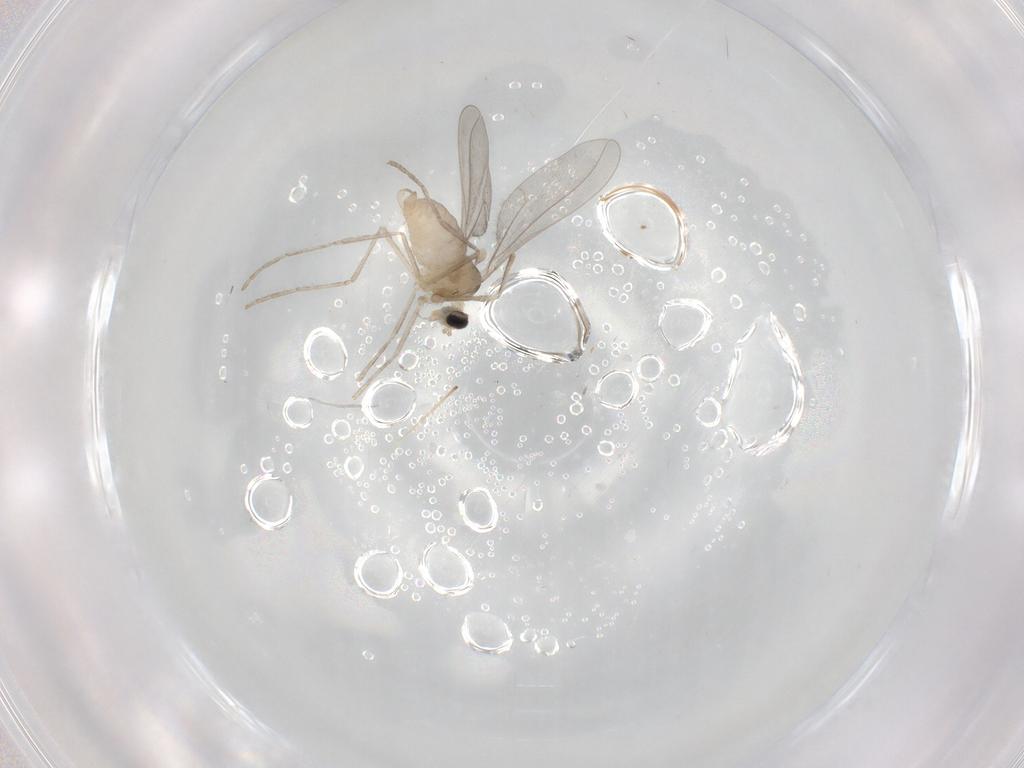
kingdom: Animalia
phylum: Arthropoda
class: Insecta
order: Diptera
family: Cecidomyiidae
